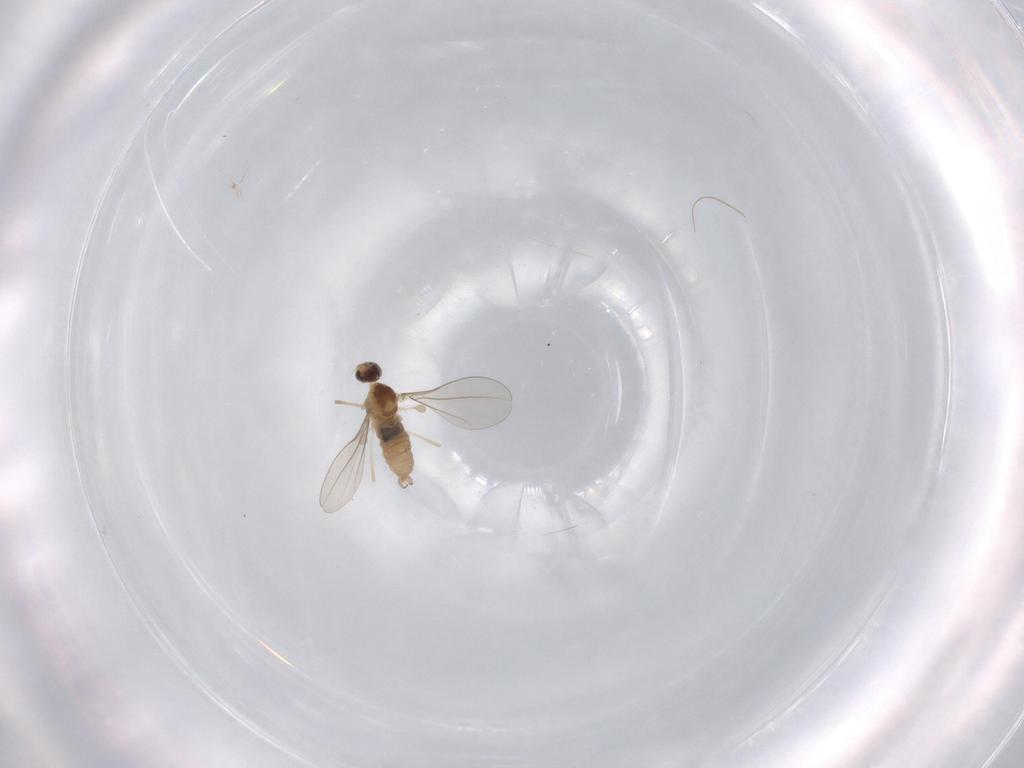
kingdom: Animalia
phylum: Arthropoda
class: Insecta
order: Diptera
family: Cecidomyiidae
